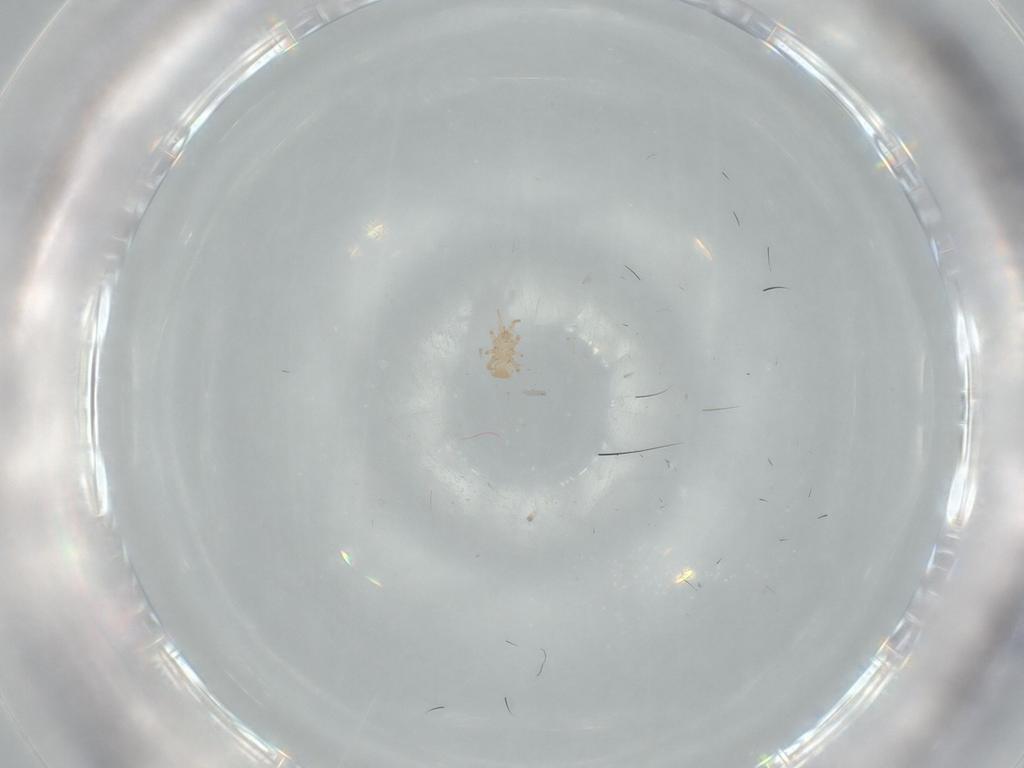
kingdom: Animalia
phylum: Arthropoda
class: Arachnida
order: Mesostigmata
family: Digamasellidae
